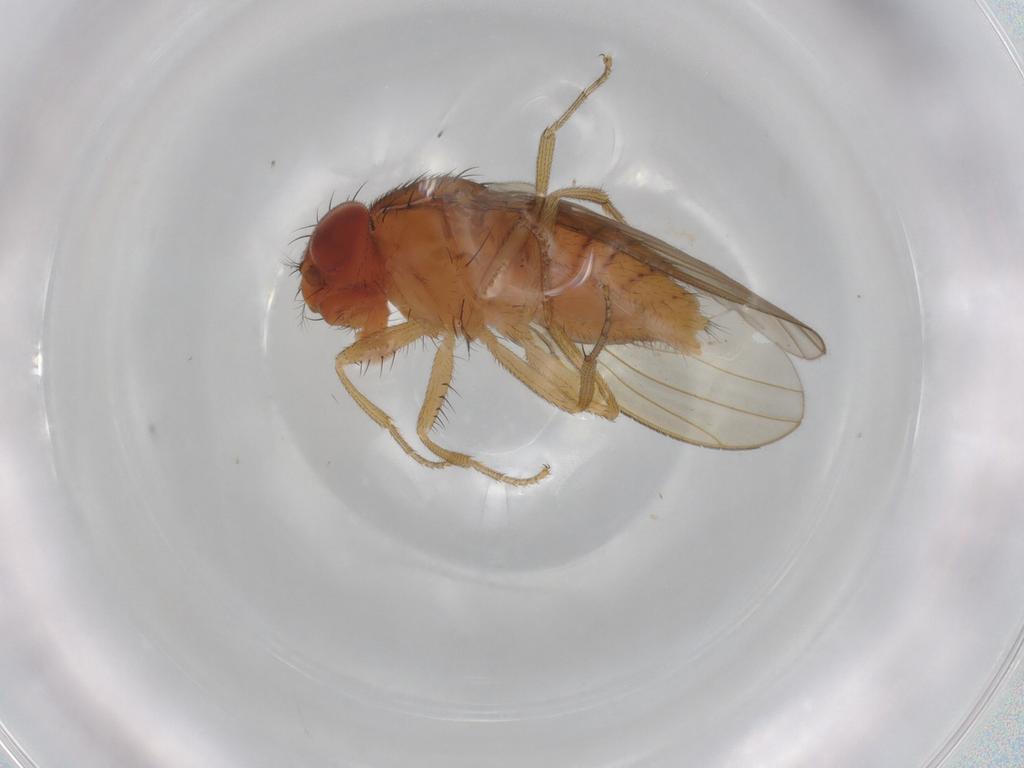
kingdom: Animalia
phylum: Arthropoda
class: Insecta
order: Diptera
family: Drosophilidae
